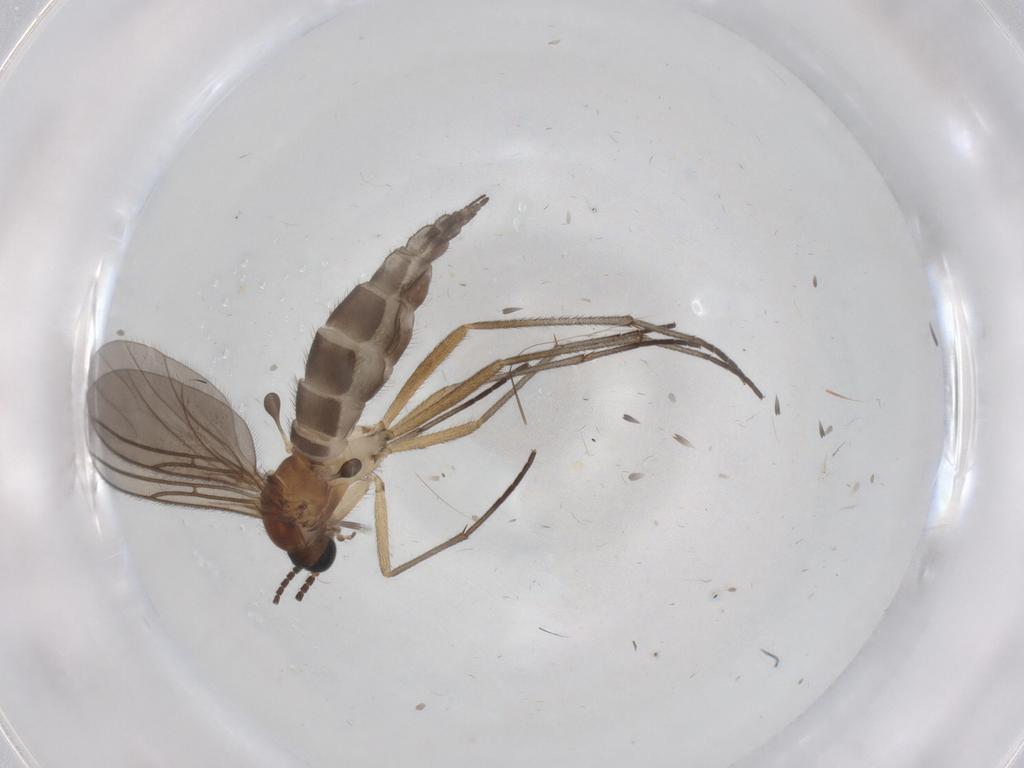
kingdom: Animalia
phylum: Arthropoda
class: Insecta
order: Diptera
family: Sciaridae
